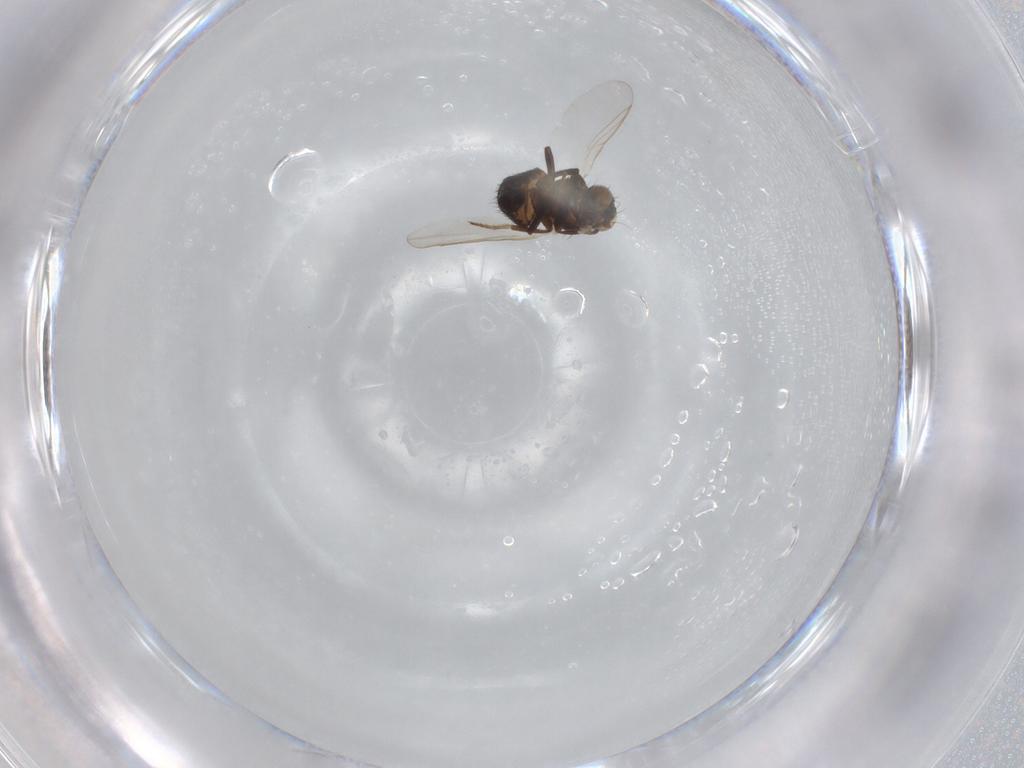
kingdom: Animalia
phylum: Arthropoda
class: Insecta
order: Diptera
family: Agromyzidae
